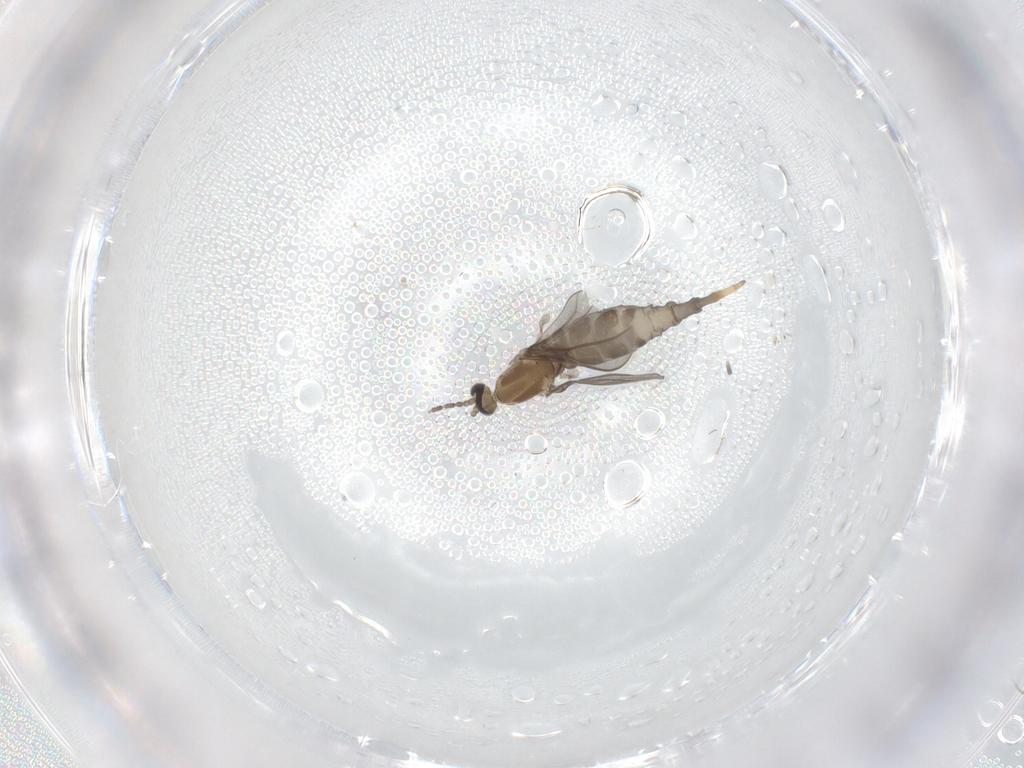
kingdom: Animalia
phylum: Arthropoda
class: Insecta
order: Diptera
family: Cecidomyiidae
